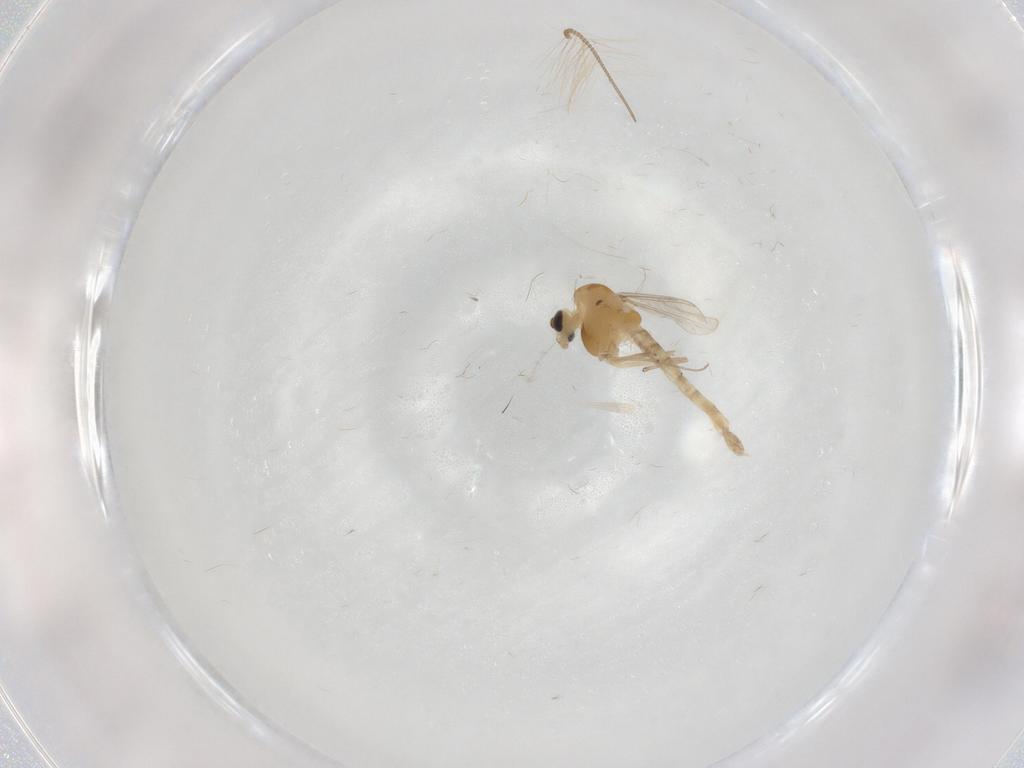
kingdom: Animalia
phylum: Arthropoda
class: Insecta
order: Diptera
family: Chironomidae
